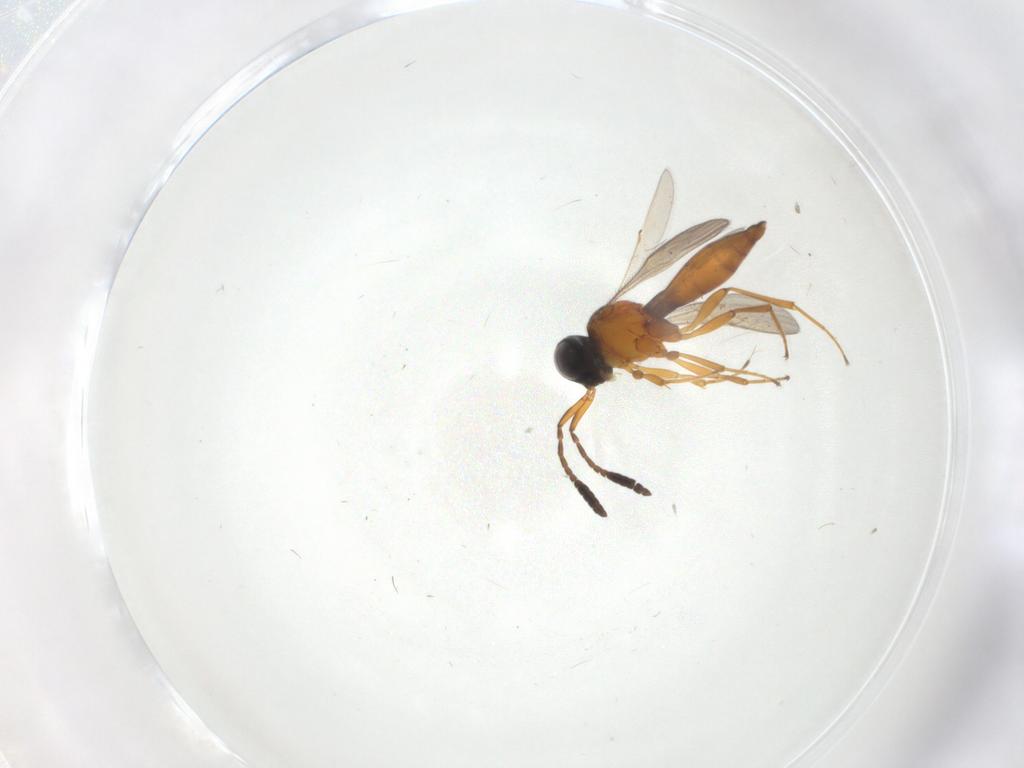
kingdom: Animalia
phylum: Arthropoda
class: Insecta
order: Hymenoptera
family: Scelionidae
